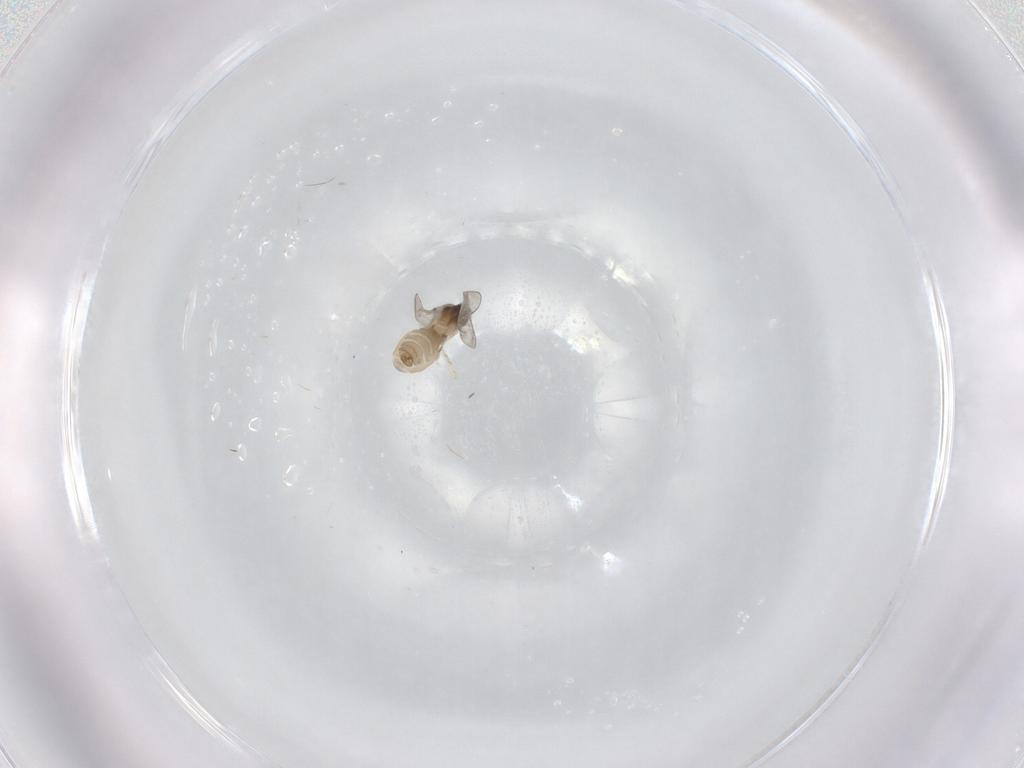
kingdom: Animalia
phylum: Arthropoda
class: Insecta
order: Diptera
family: Cecidomyiidae
